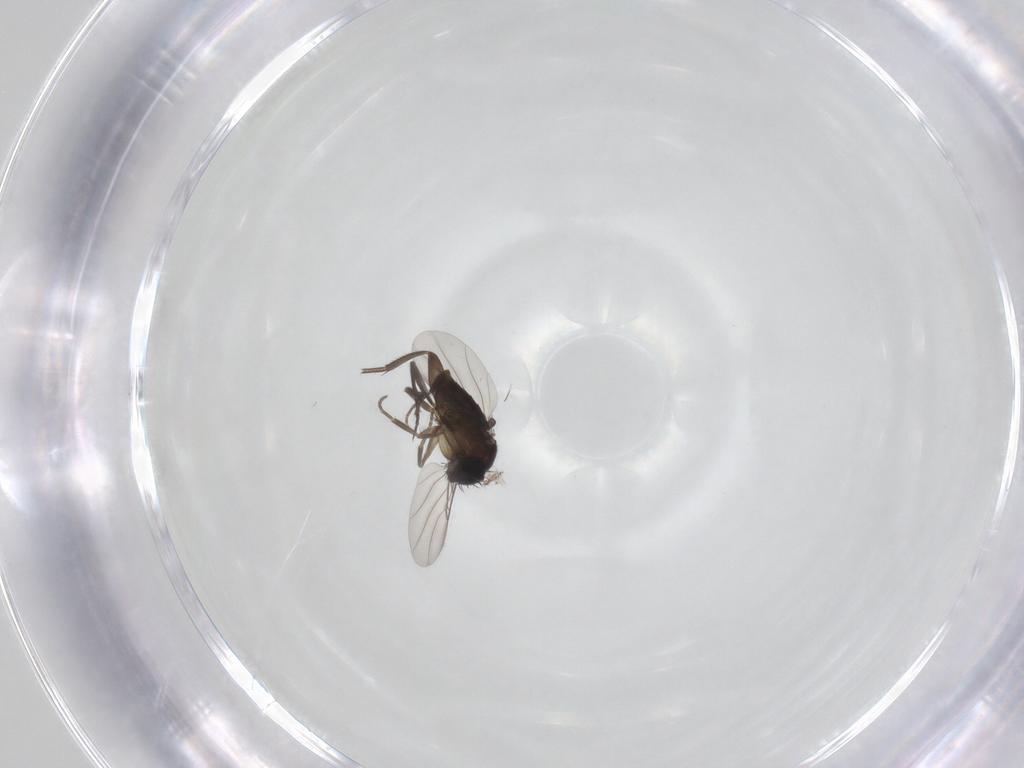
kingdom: Animalia
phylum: Arthropoda
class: Insecta
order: Diptera
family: Phoridae
